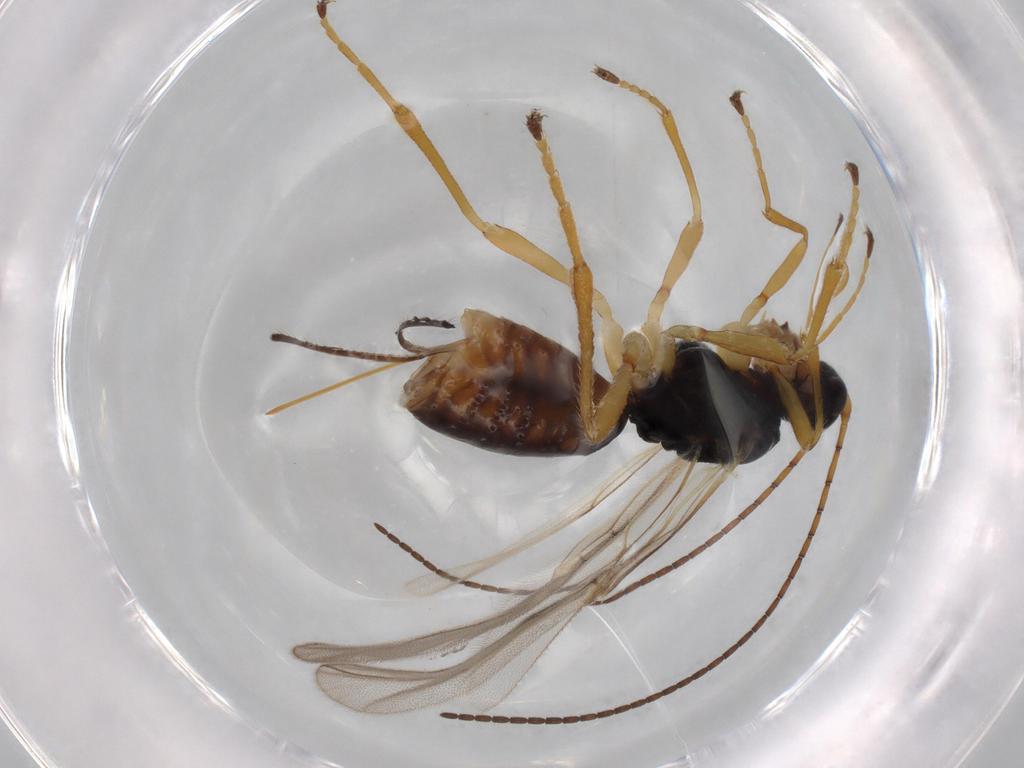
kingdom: Animalia
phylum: Arthropoda
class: Insecta
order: Hymenoptera
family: Braconidae
